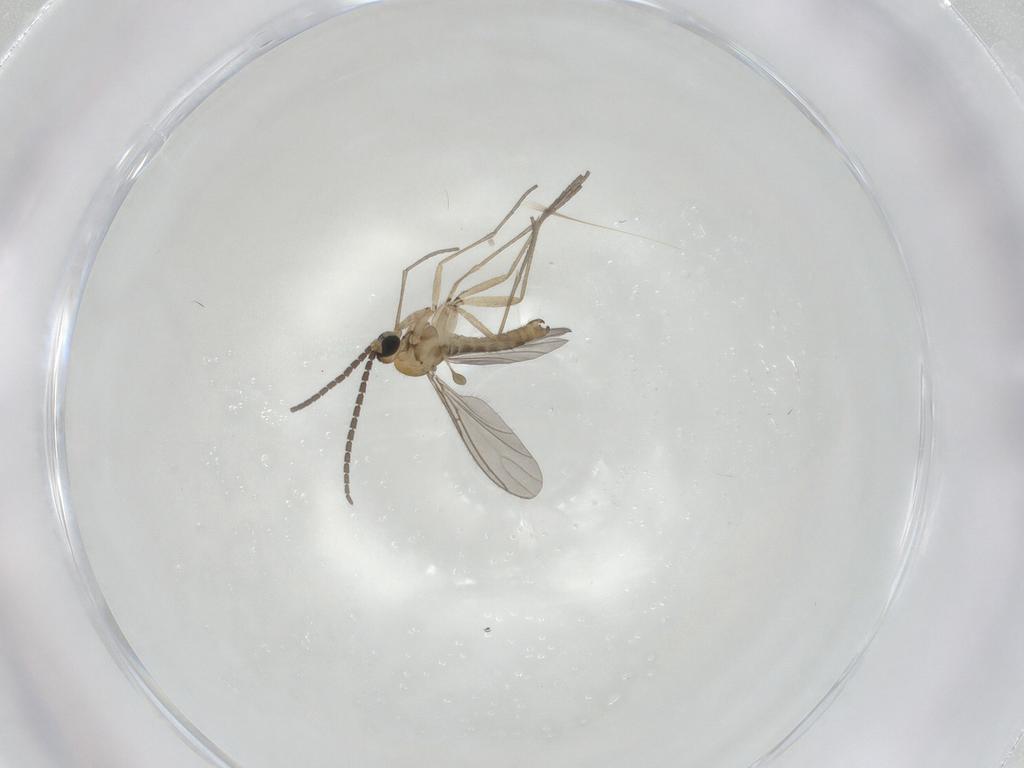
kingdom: Animalia
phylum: Arthropoda
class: Insecta
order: Diptera
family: Sciaridae
